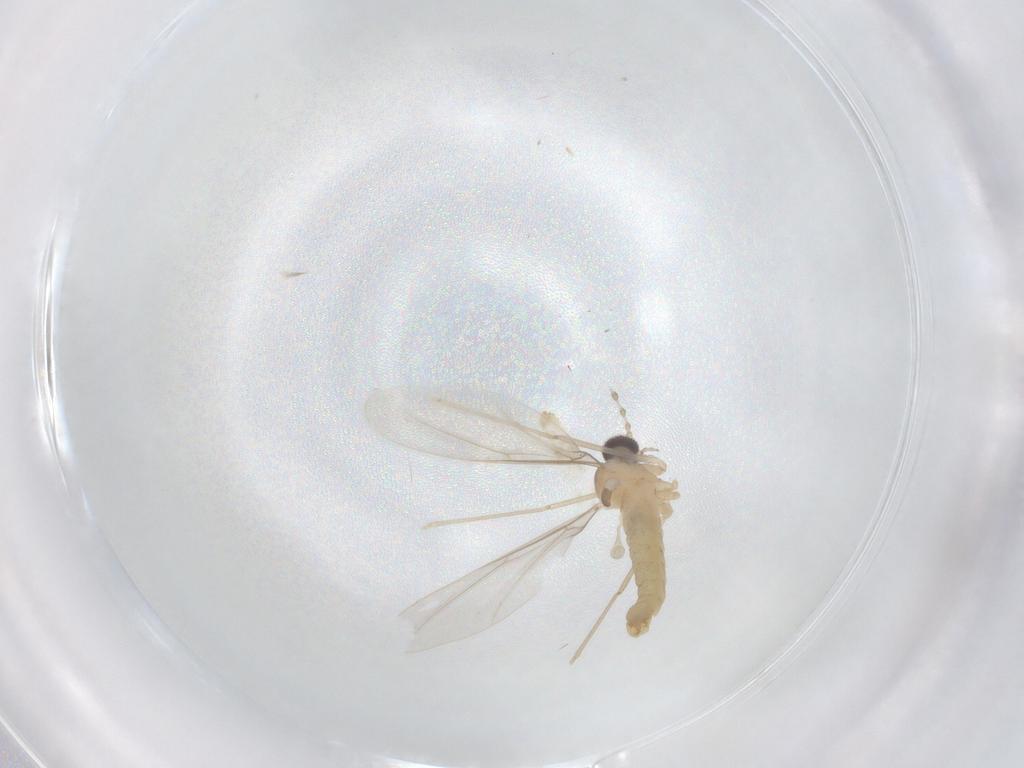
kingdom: Animalia
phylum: Arthropoda
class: Insecta
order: Diptera
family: Cecidomyiidae
